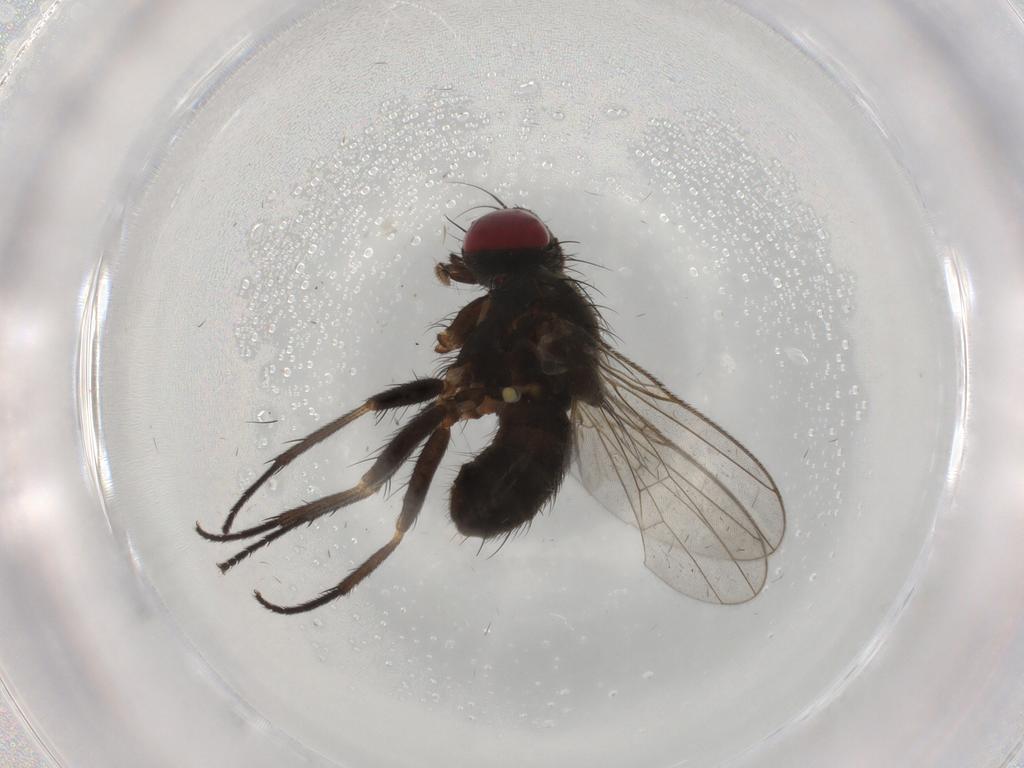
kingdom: Animalia
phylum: Arthropoda
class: Insecta
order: Diptera
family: Muscidae
